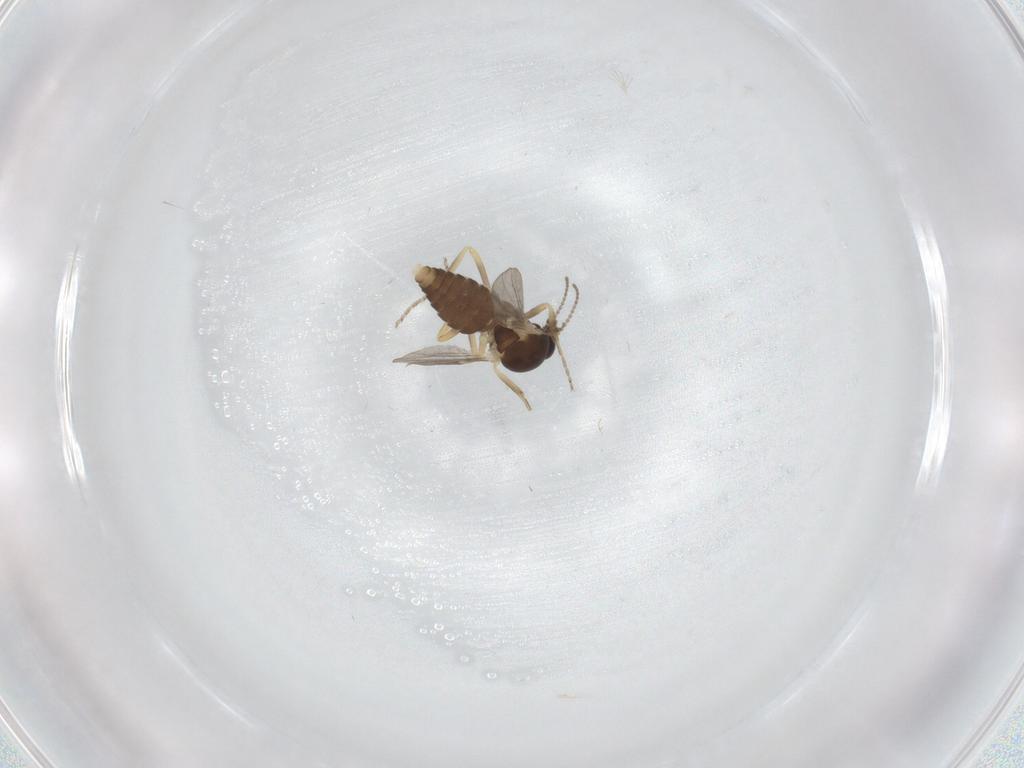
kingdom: Animalia
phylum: Arthropoda
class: Insecta
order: Diptera
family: Ceratopogonidae
